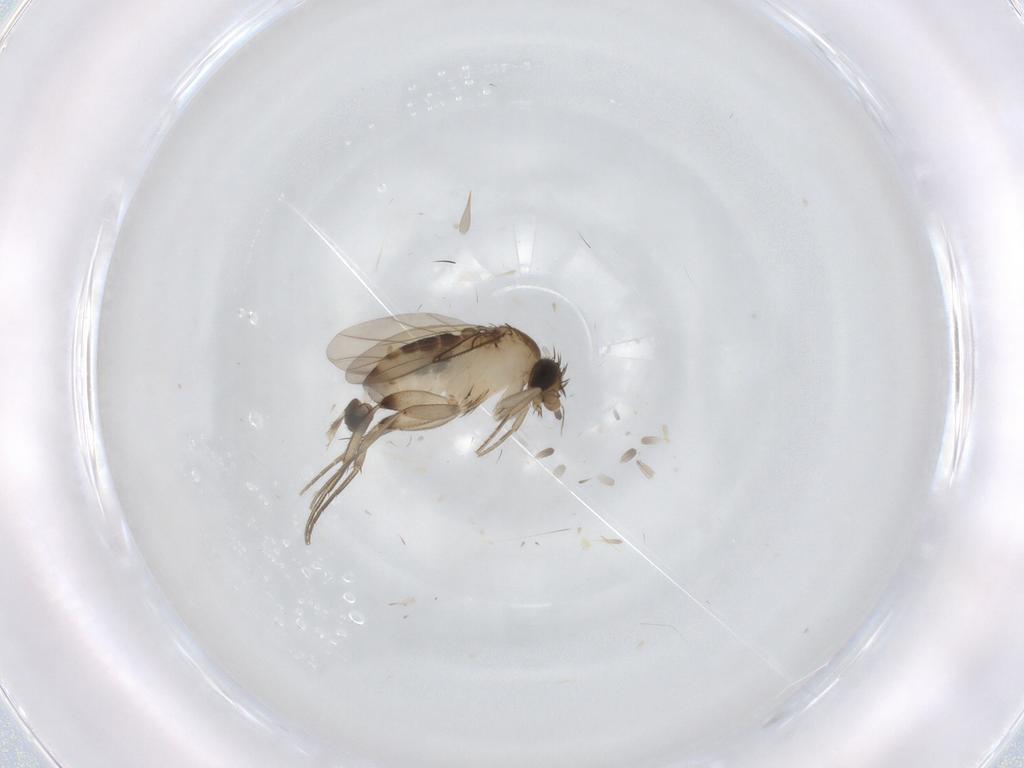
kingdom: Animalia
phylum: Arthropoda
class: Insecta
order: Diptera
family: Phoridae
